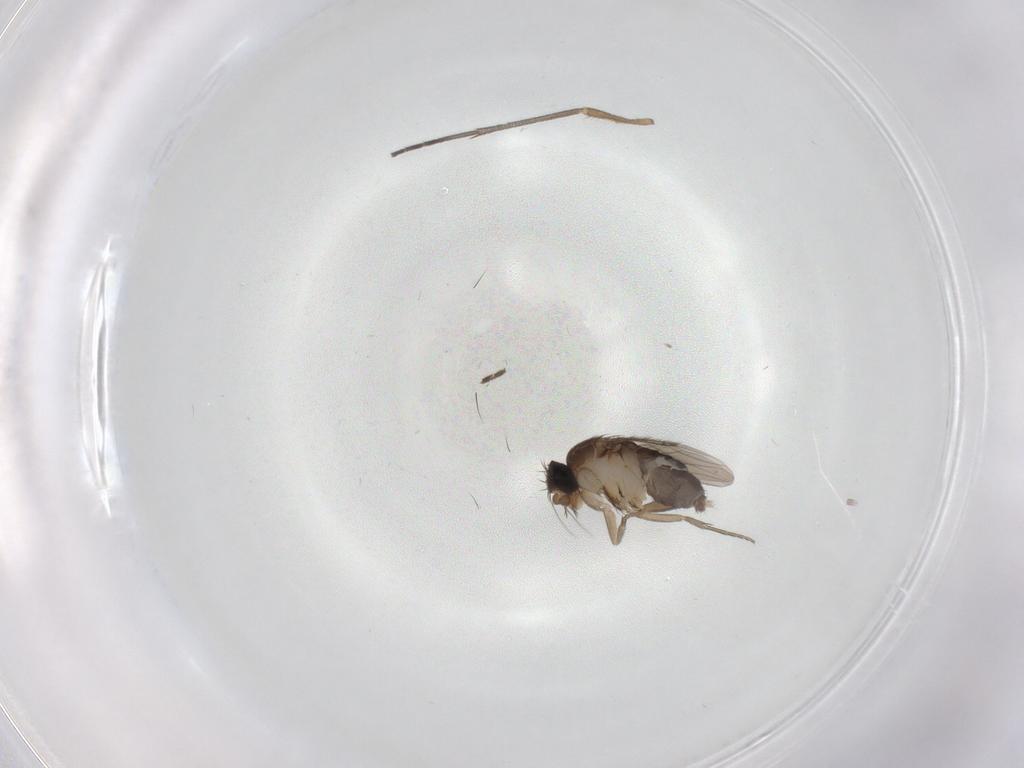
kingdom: Animalia
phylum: Arthropoda
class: Insecta
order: Diptera
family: Phoridae
